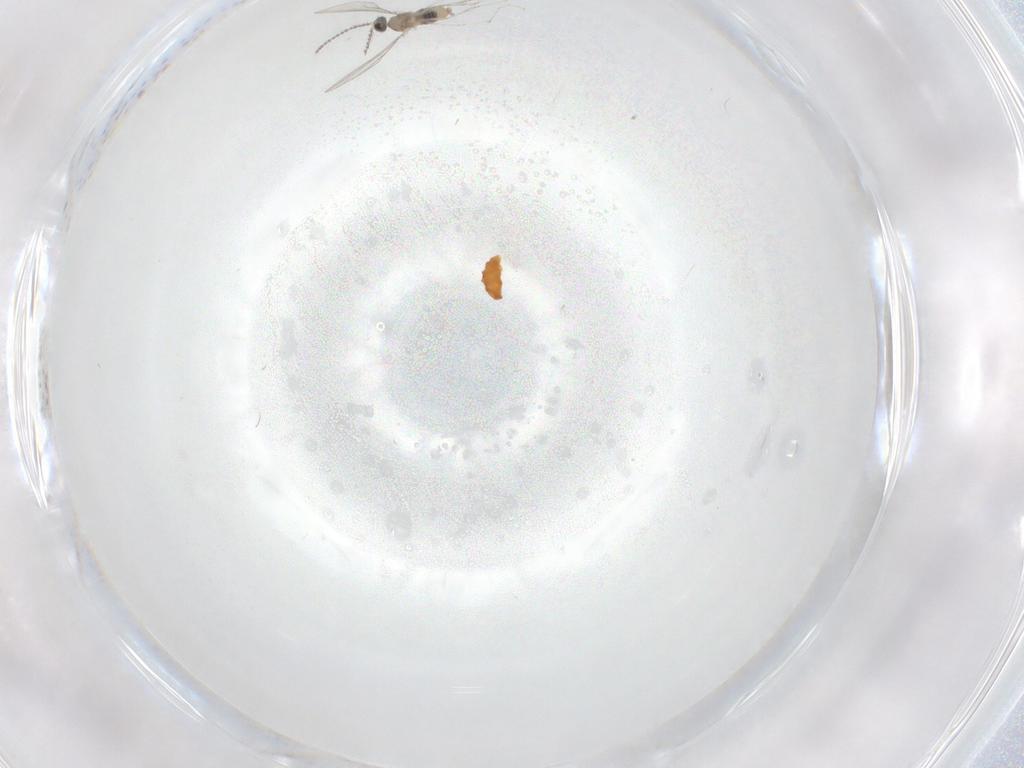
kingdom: Animalia
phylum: Arthropoda
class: Insecta
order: Diptera
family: Cecidomyiidae
